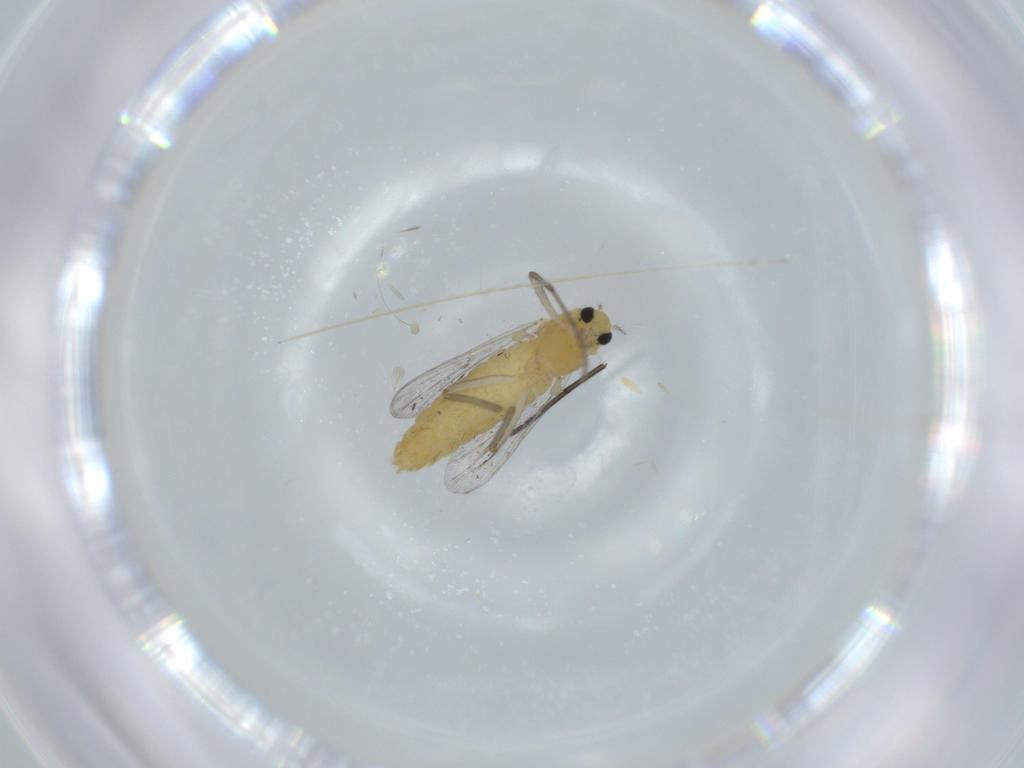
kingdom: Animalia
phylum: Arthropoda
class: Insecta
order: Diptera
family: Chironomidae
